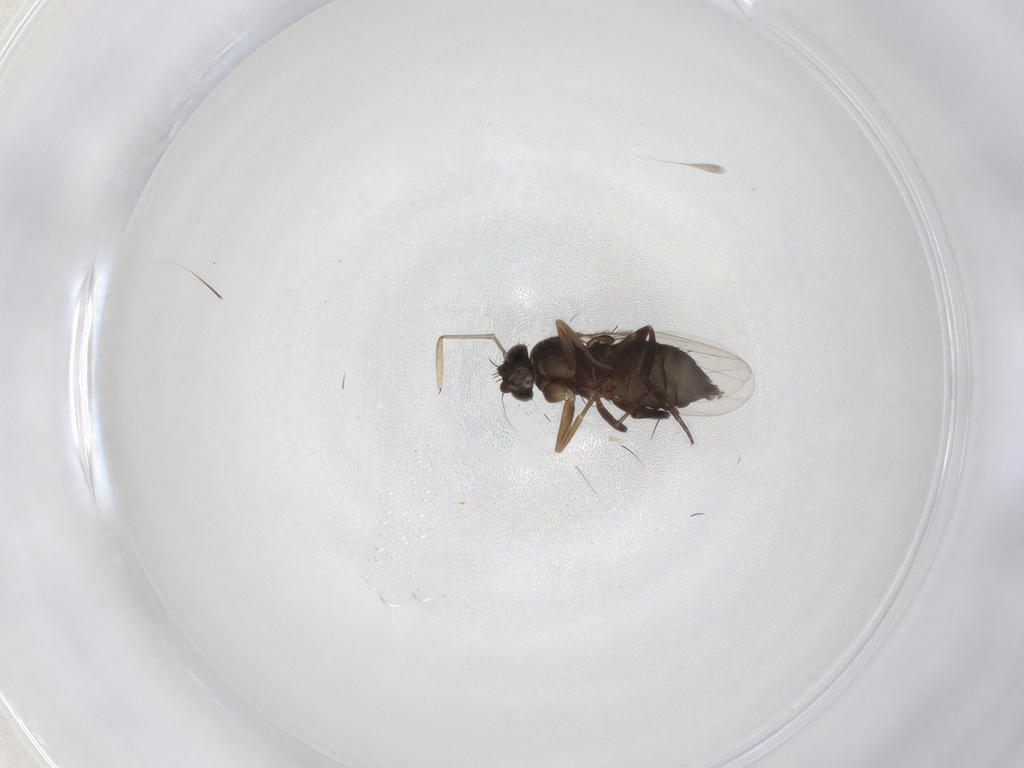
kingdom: Animalia
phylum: Arthropoda
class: Insecta
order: Diptera
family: Phoridae
